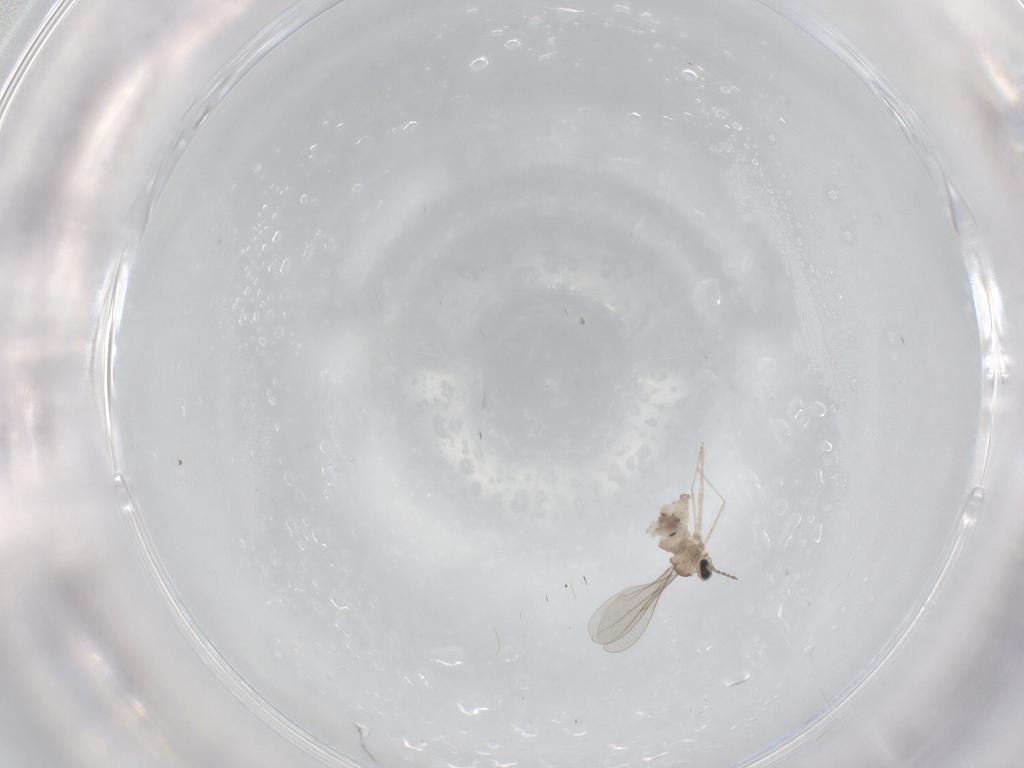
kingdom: Animalia
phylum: Arthropoda
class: Insecta
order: Diptera
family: Cecidomyiidae
